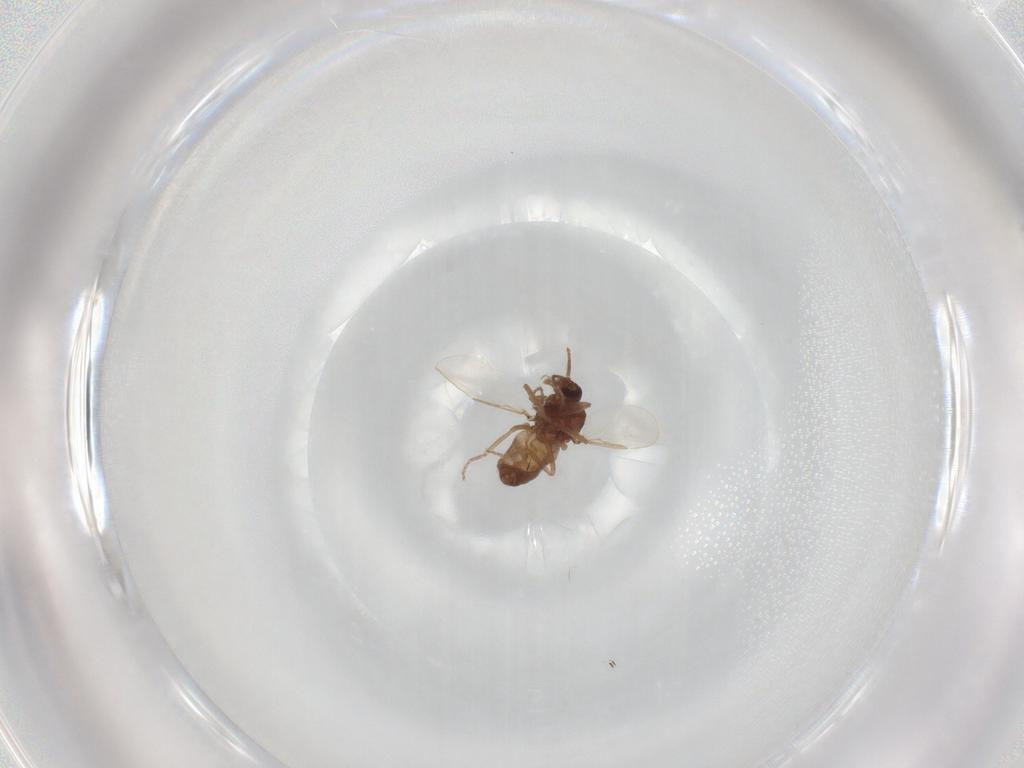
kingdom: Animalia
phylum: Arthropoda
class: Insecta
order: Diptera
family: Ceratopogonidae
